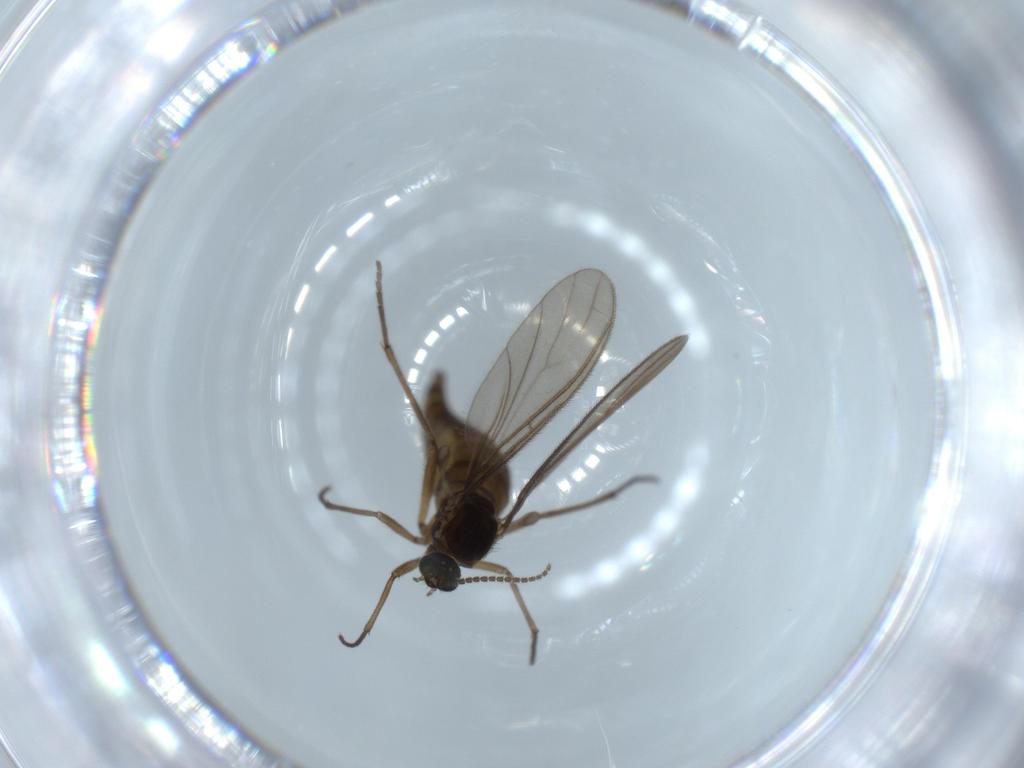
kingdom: Animalia
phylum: Arthropoda
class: Insecta
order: Diptera
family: Sciaridae
